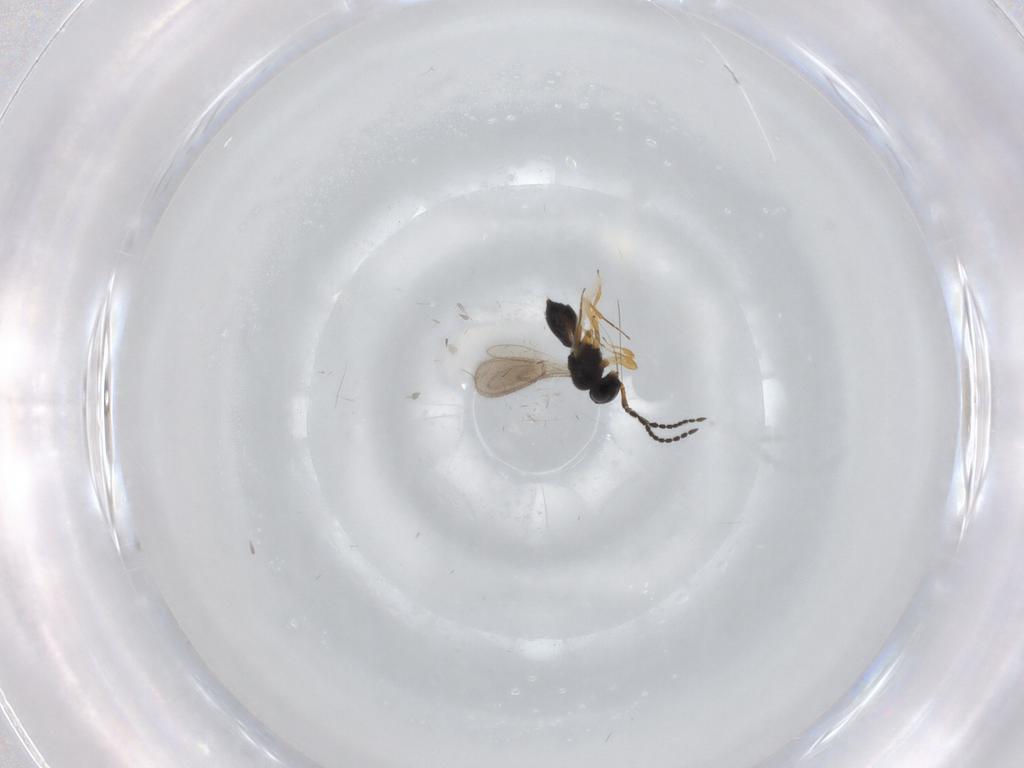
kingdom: Animalia
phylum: Arthropoda
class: Insecta
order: Hymenoptera
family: Scelionidae
